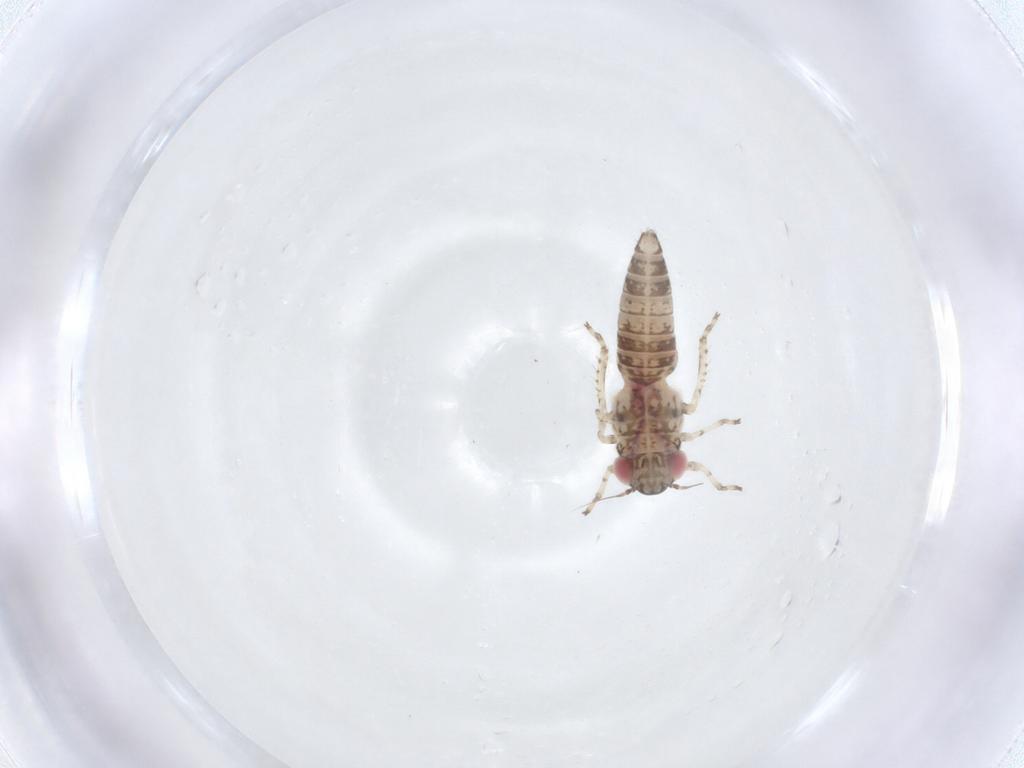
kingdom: Animalia
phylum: Arthropoda
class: Insecta
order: Hemiptera
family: Cicadellidae
